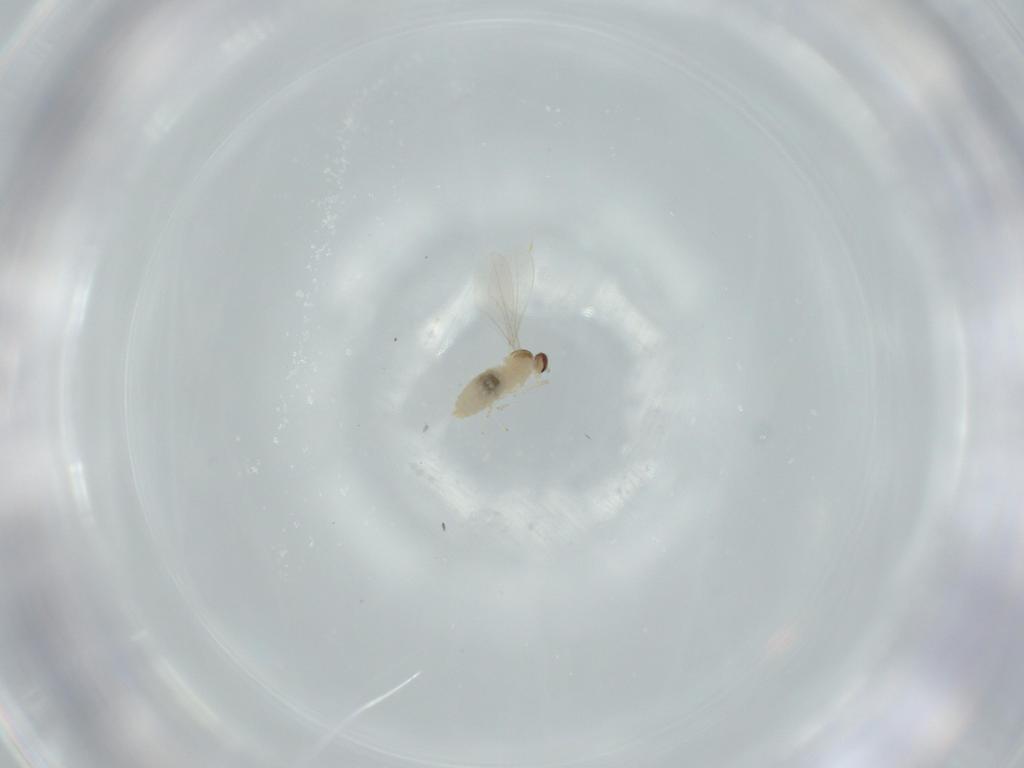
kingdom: Animalia
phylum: Arthropoda
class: Insecta
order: Diptera
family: Cecidomyiidae
